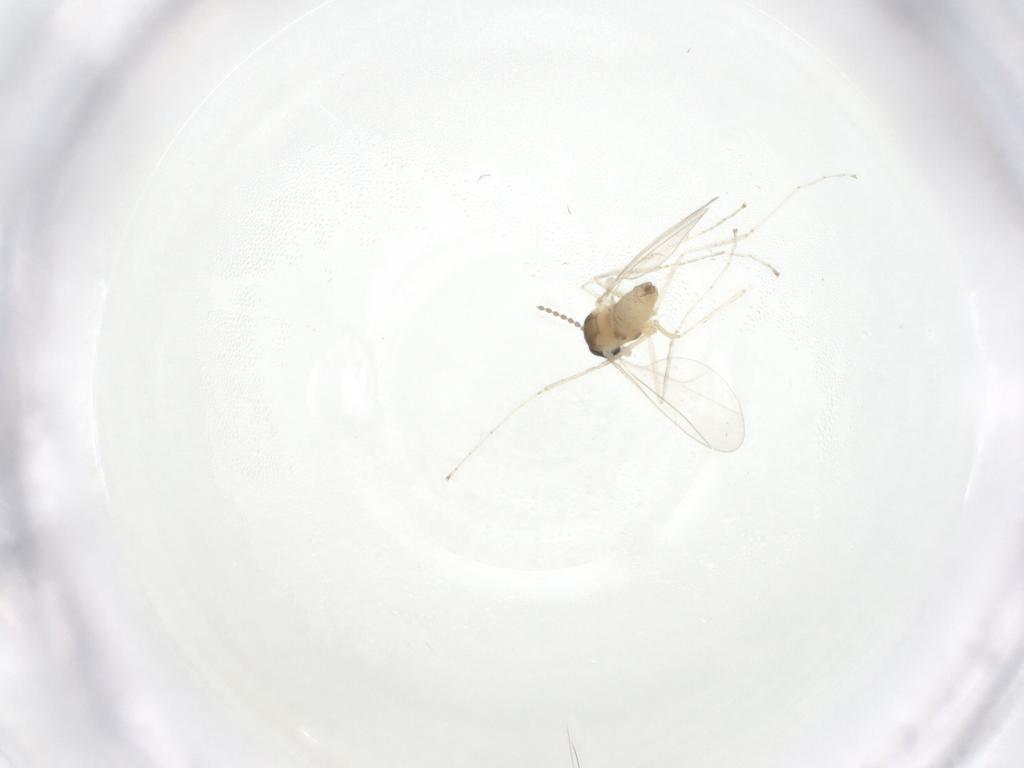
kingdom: Animalia
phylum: Arthropoda
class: Insecta
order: Diptera
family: Cecidomyiidae
